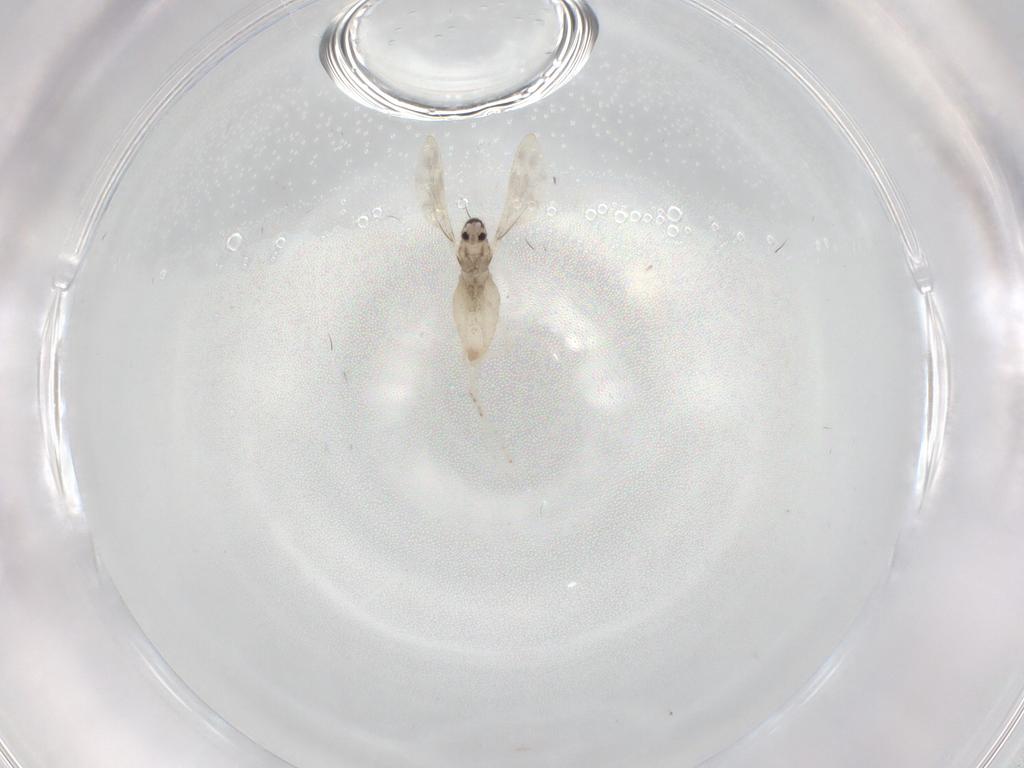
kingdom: Animalia
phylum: Arthropoda
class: Insecta
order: Diptera
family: Cecidomyiidae
